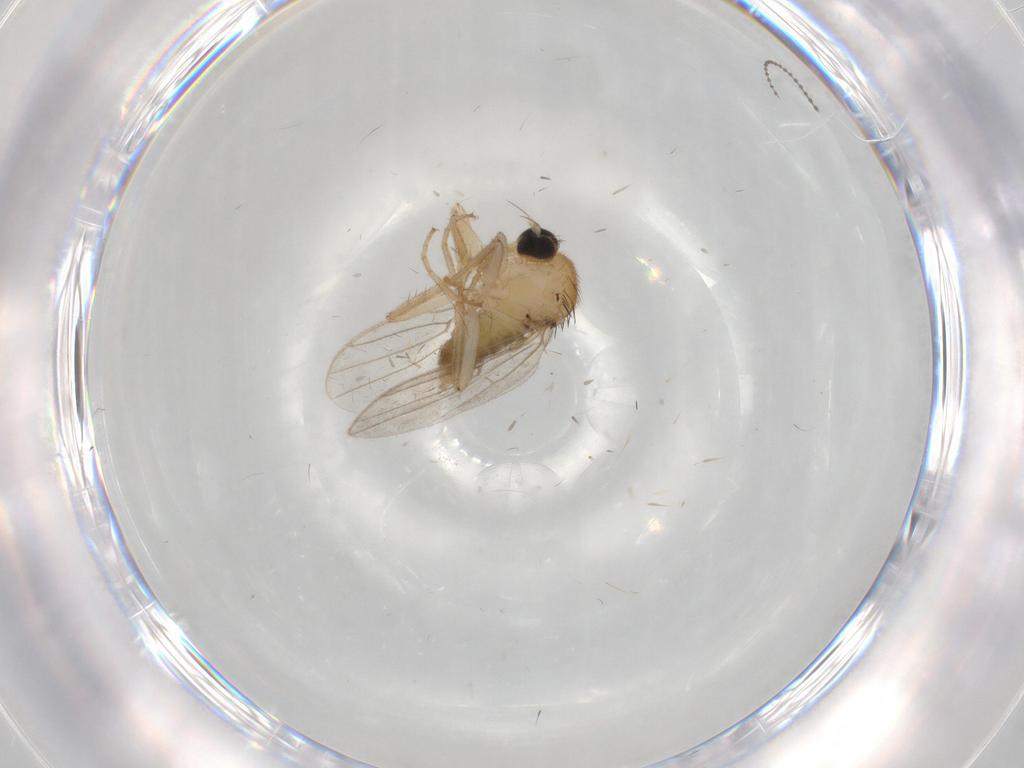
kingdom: Animalia
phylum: Arthropoda
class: Insecta
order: Diptera
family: Hybotidae
